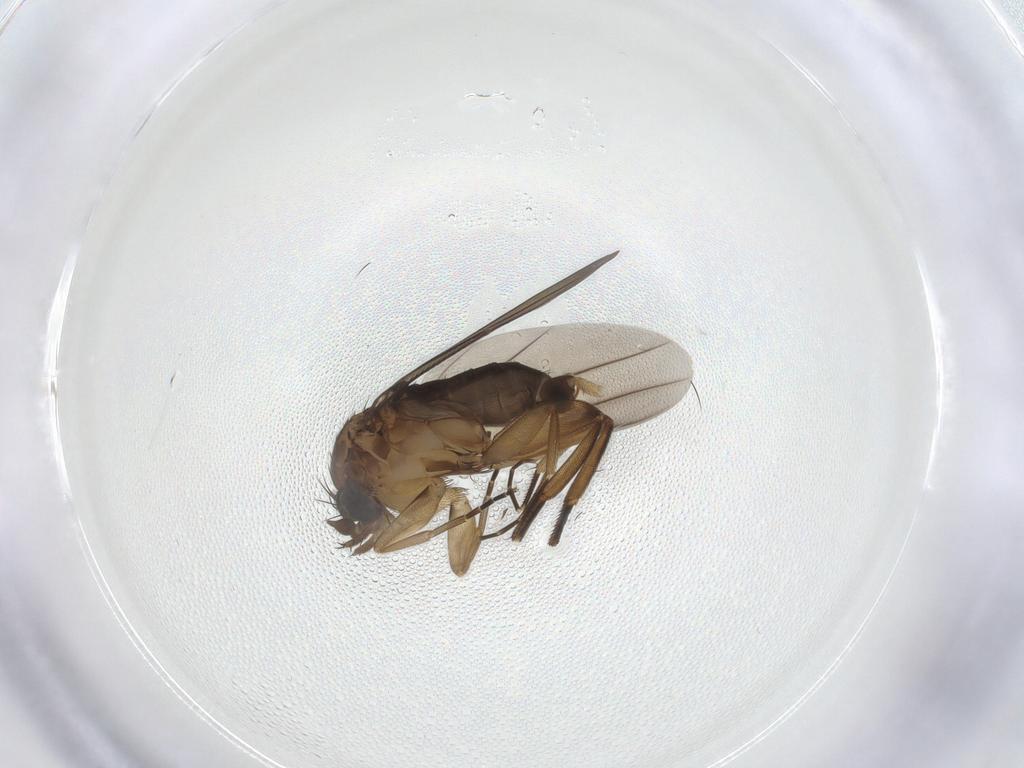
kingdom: Animalia
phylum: Arthropoda
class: Insecta
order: Diptera
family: Phoridae
